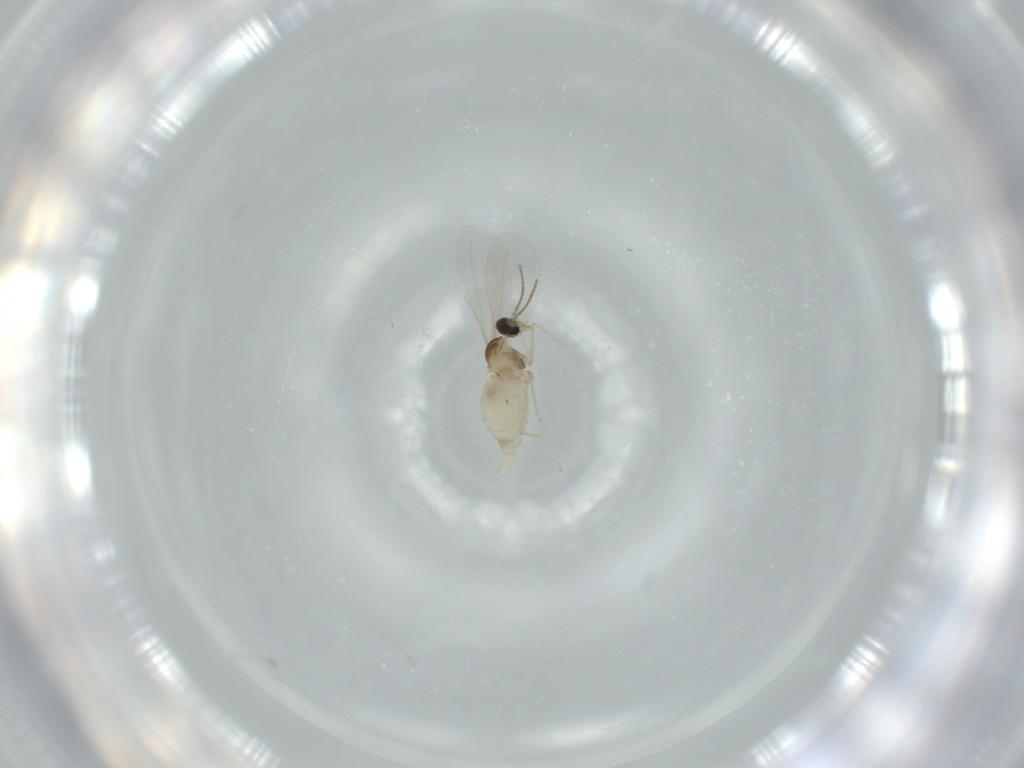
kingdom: Animalia
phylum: Arthropoda
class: Insecta
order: Diptera
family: Cecidomyiidae
